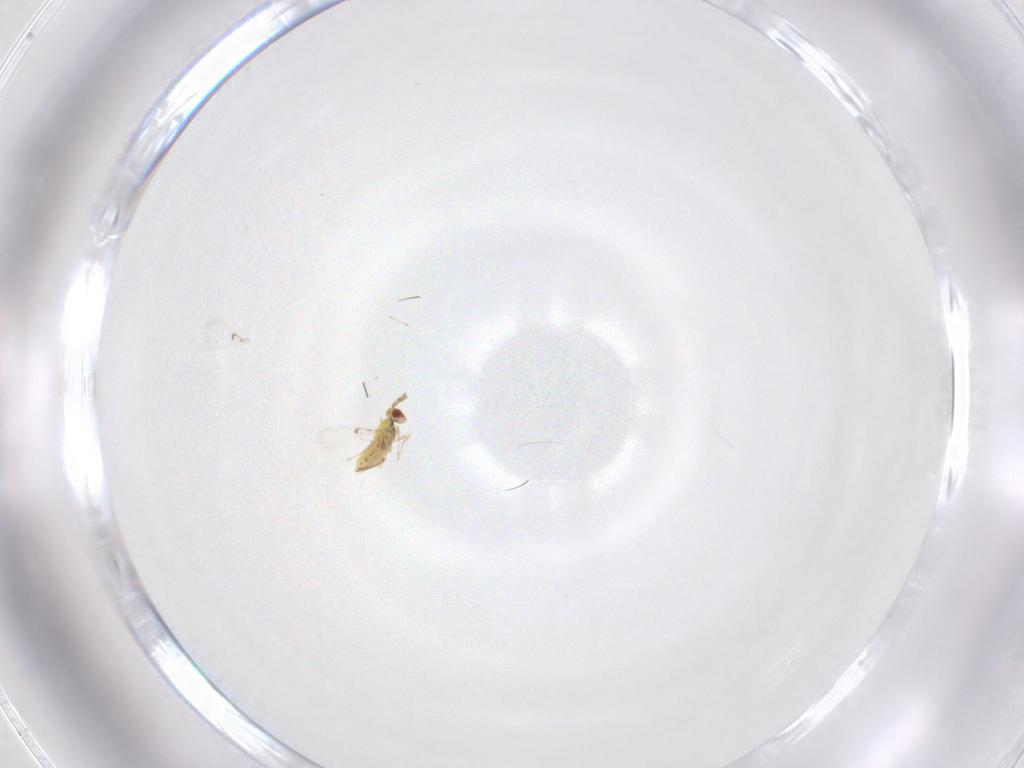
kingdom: Animalia
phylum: Arthropoda
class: Insecta
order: Hymenoptera
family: Trichogrammatidae
